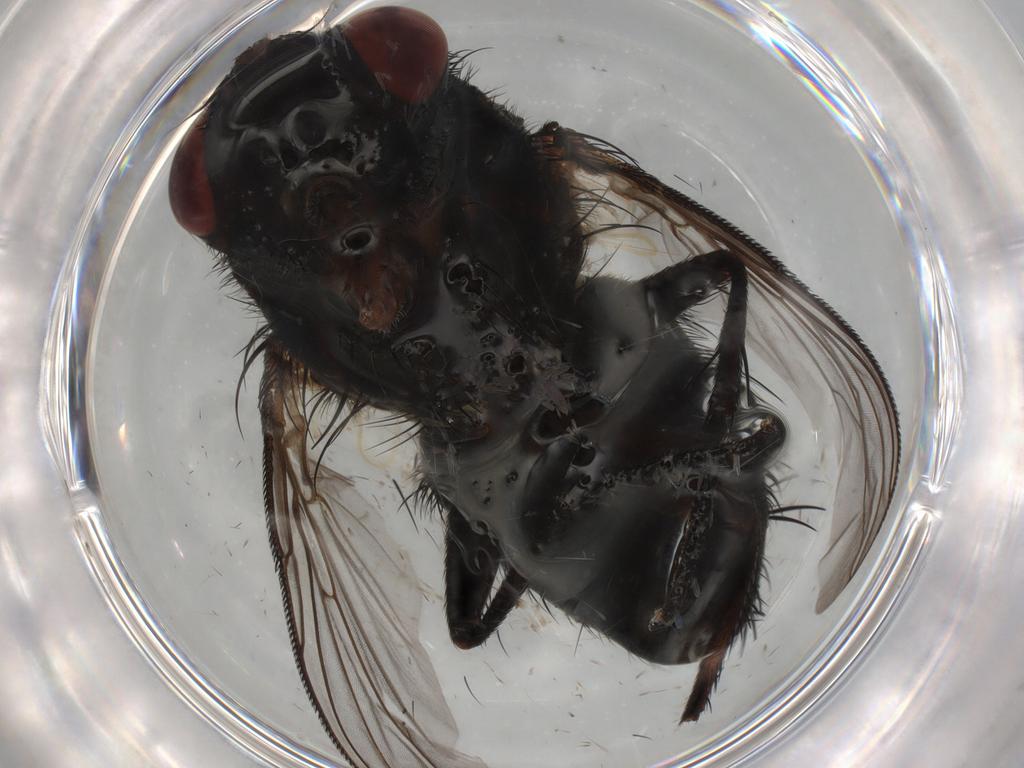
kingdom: Animalia
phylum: Arthropoda
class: Insecta
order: Diptera
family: Tachinidae
